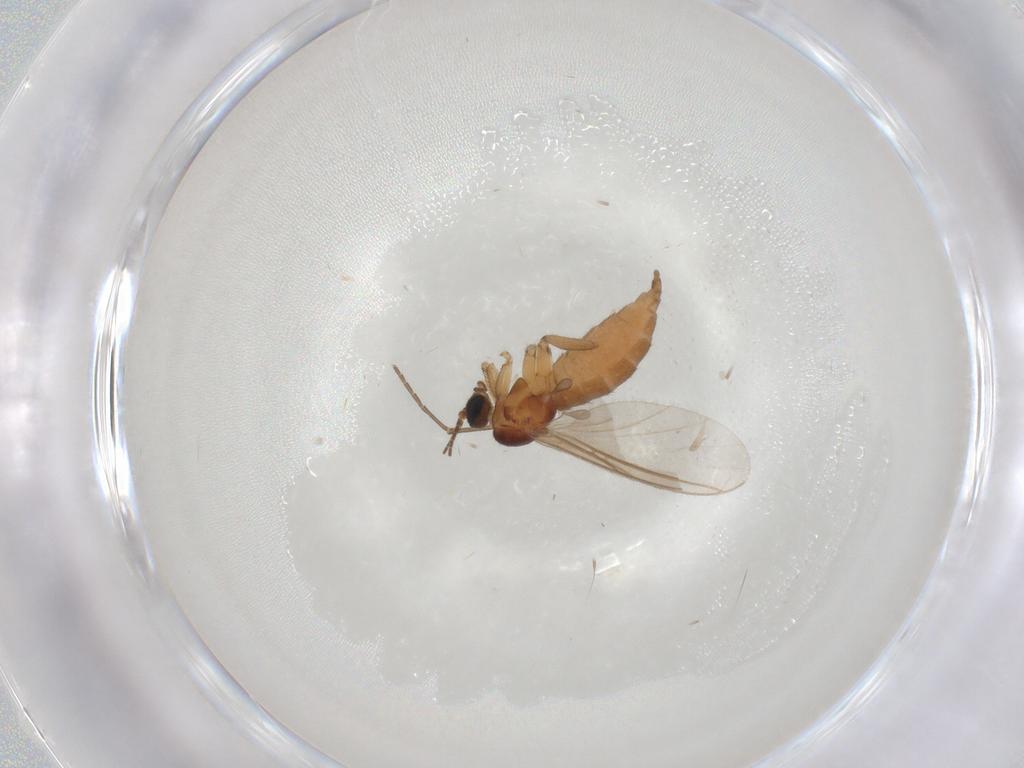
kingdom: Animalia
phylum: Arthropoda
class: Insecta
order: Diptera
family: Sciaridae
